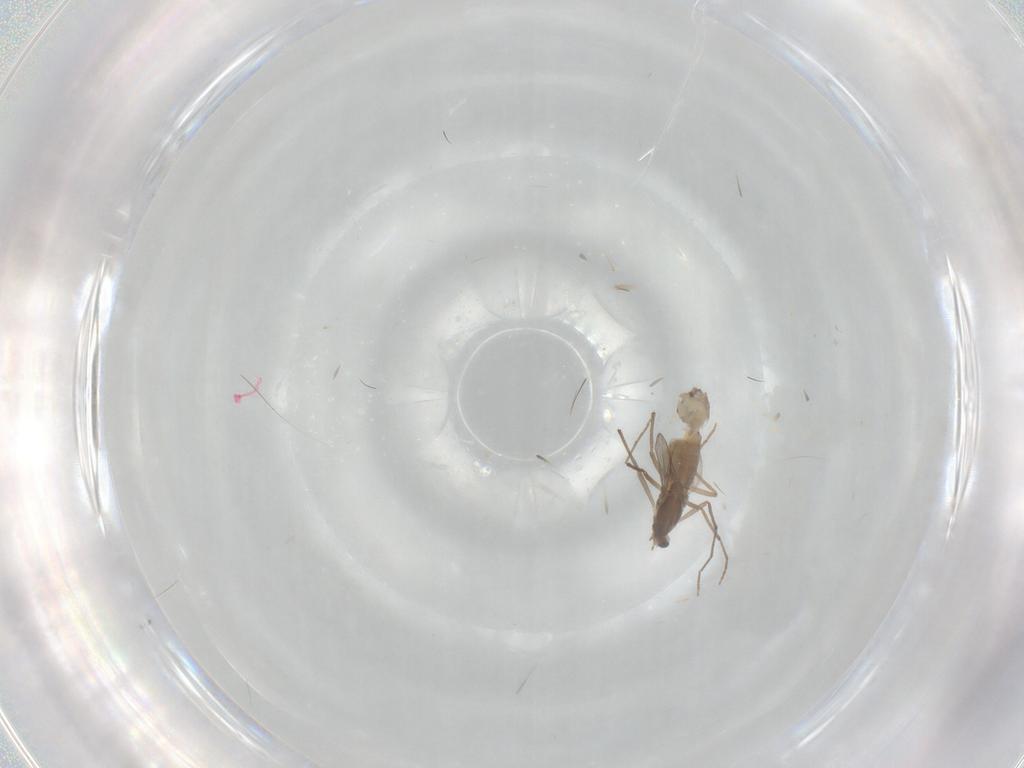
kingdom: Animalia
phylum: Arthropoda
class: Insecta
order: Diptera
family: Chironomidae
